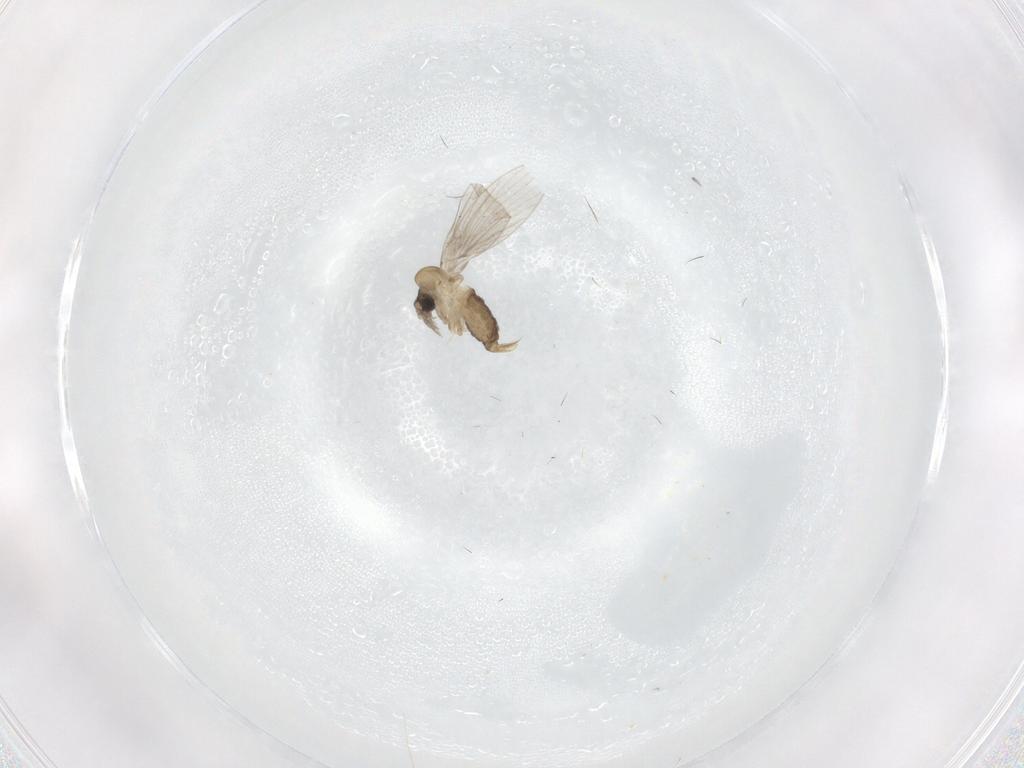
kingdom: Animalia
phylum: Arthropoda
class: Insecta
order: Diptera
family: Psychodidae
